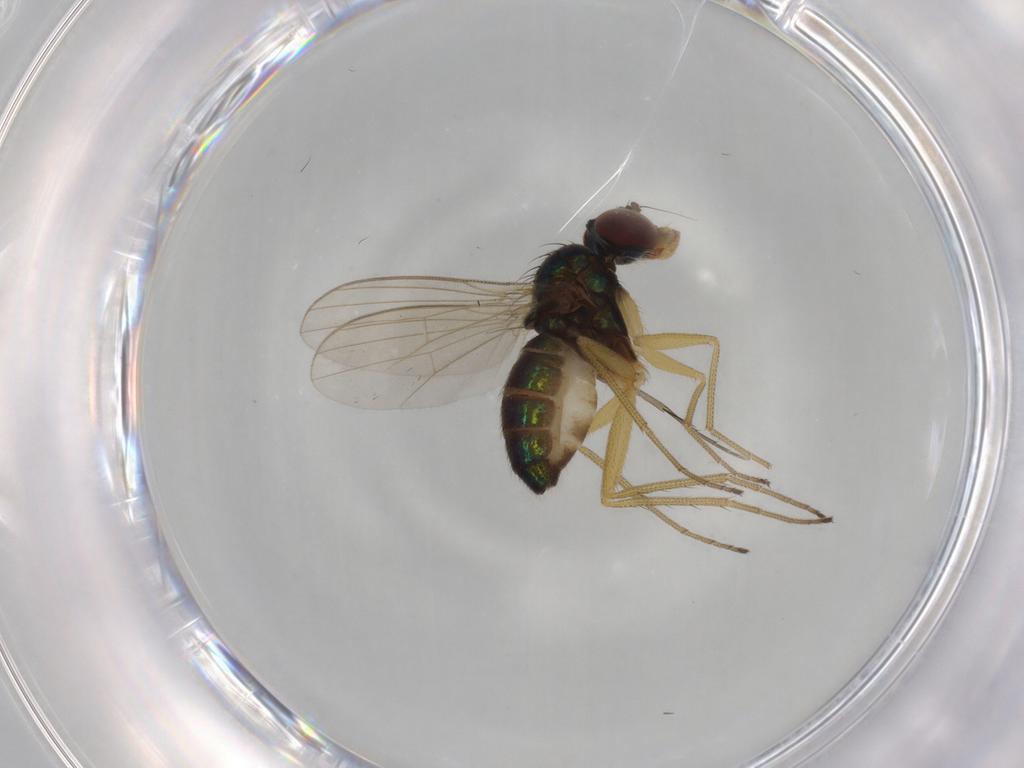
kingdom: Animalia
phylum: Arthropoda
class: Insecta
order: Diptera
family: Dolichopodidae
